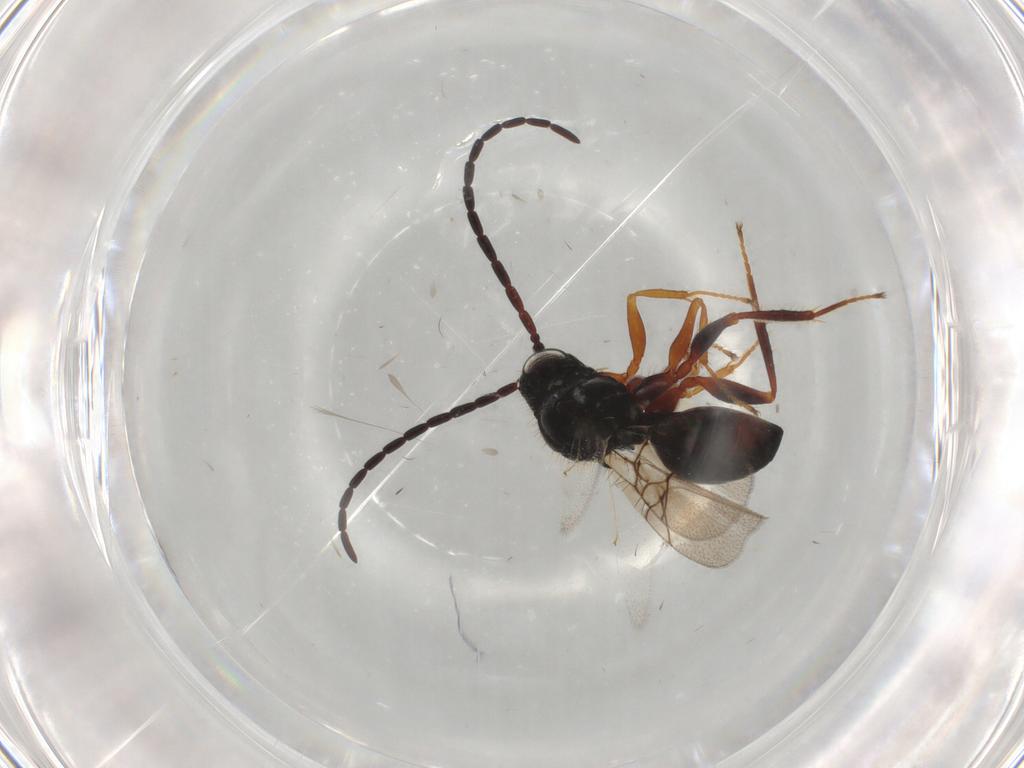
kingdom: Animalia
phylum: Arthropoda
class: Insecta
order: Hymenoptera
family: Figitidae
